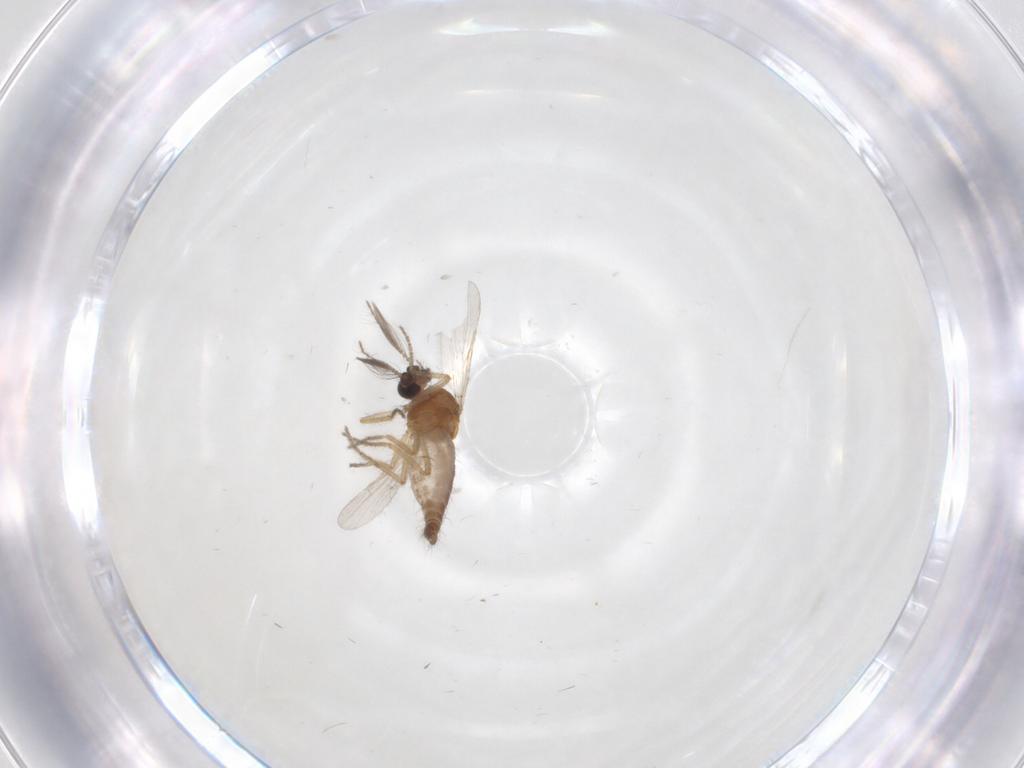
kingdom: Animalia
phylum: Arthropoda
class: Insecta
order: Diptera
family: Ceratopogonidae
